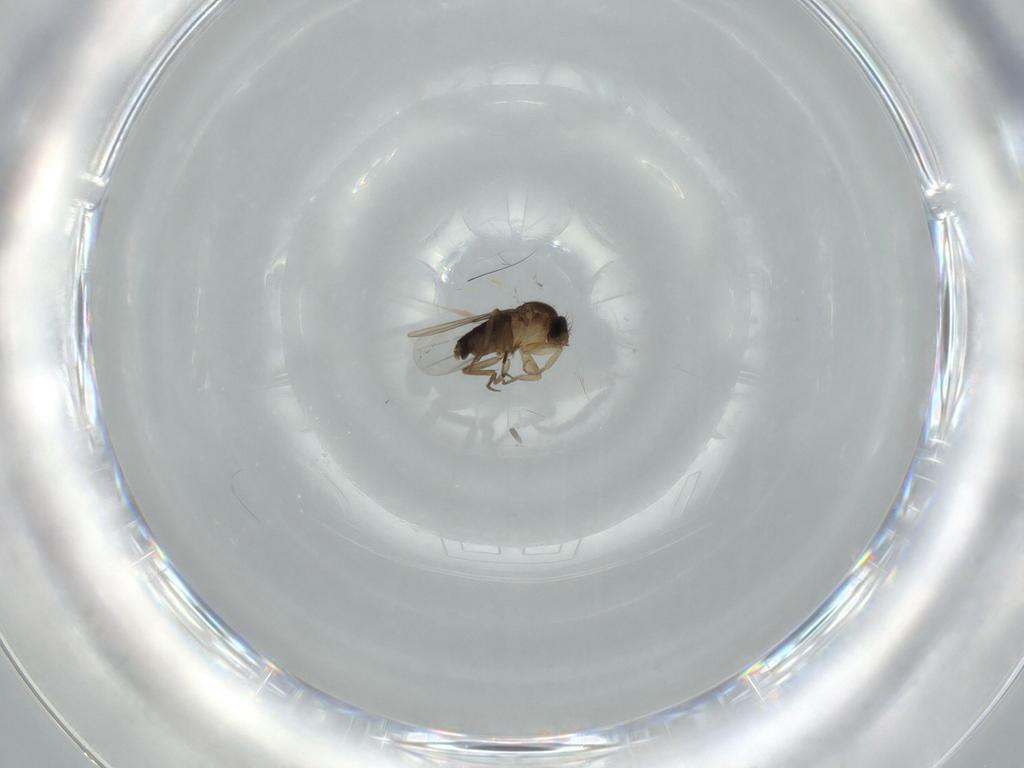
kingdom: Animalia
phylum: Arthropoda
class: Insecta
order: Diptera
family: Phoridae
